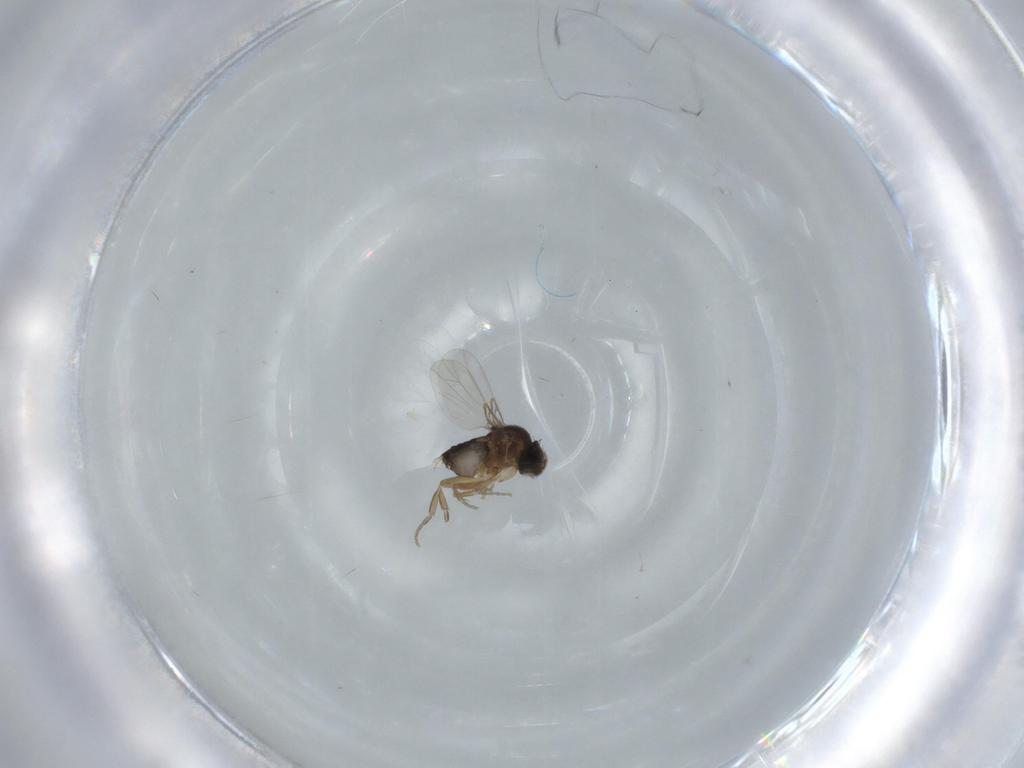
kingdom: Animalia
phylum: Arthropoda
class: Insecta
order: Diptera
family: Phoridae
